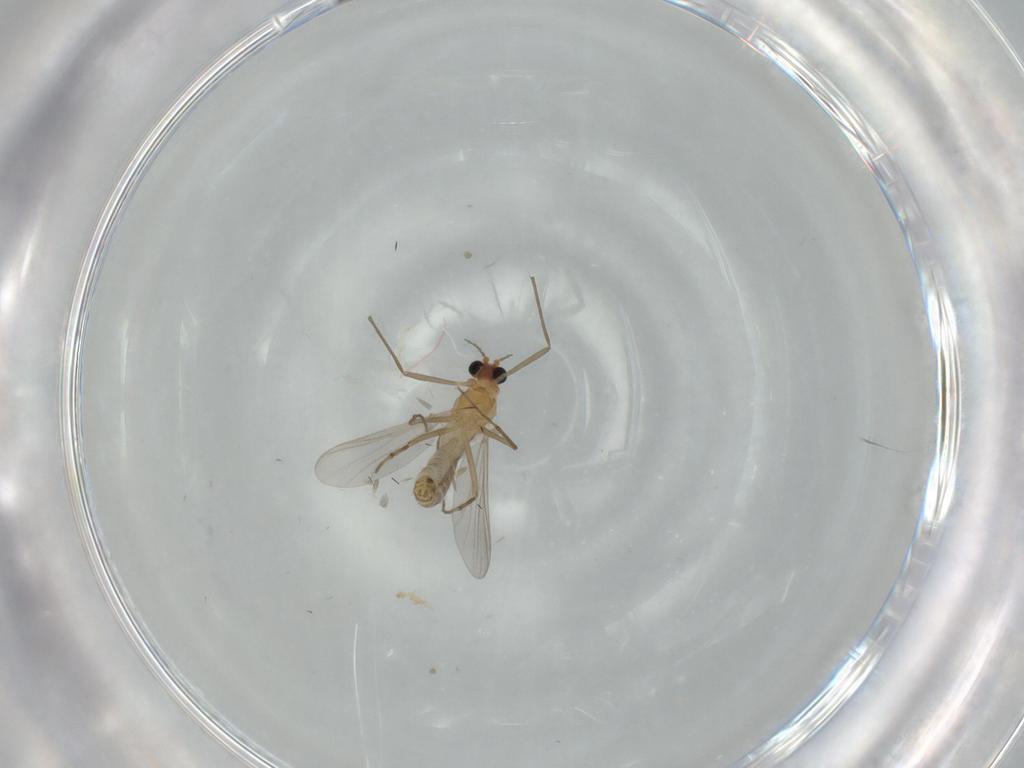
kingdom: Animalia
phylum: Arthropoda
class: Insecta
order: Diptera
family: Chironomidae
